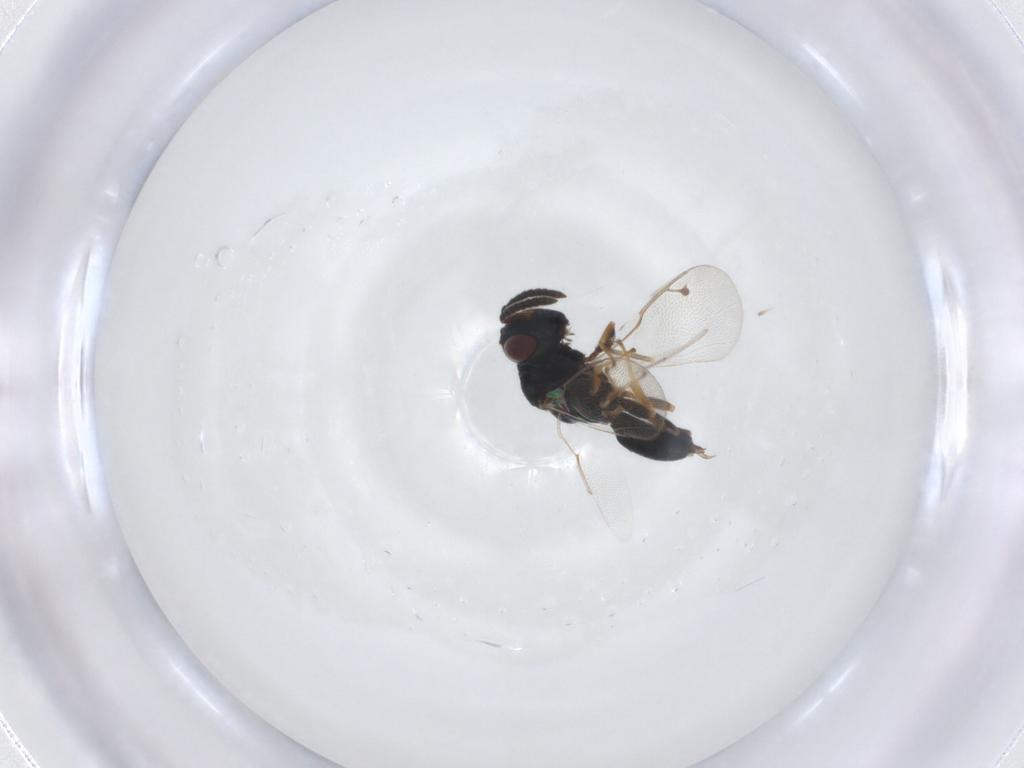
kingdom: Animalia
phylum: Arthropoda
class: Insecta
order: Hymenoptera
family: Pteromalidae
